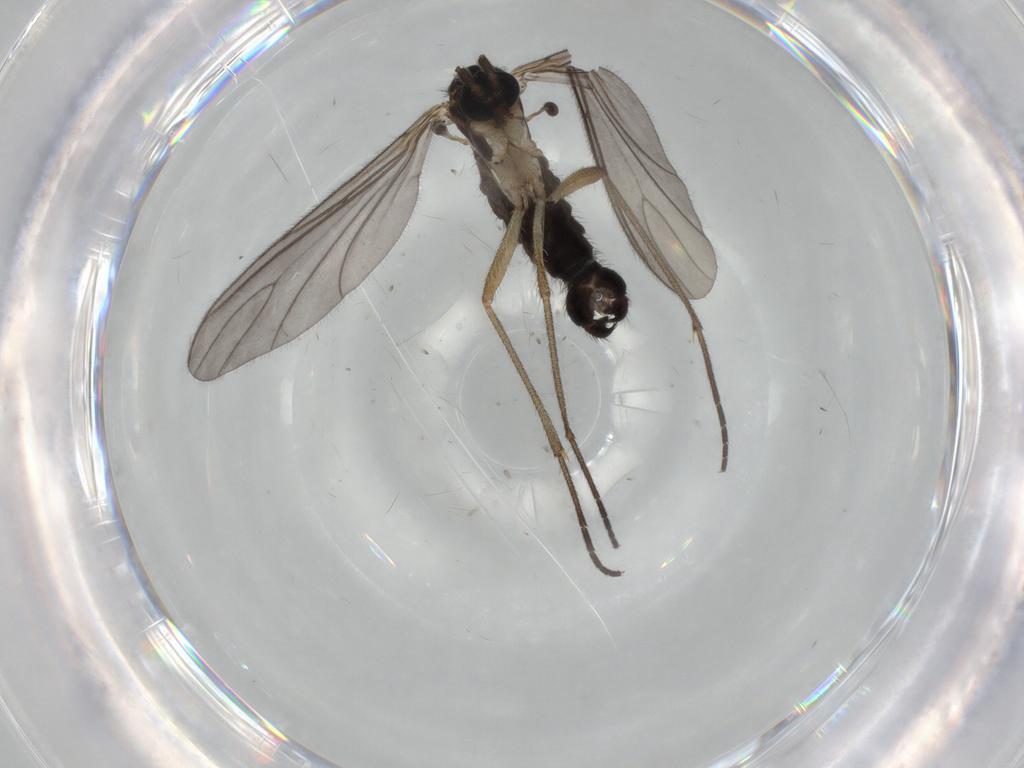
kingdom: Animalia
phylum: Arthropoda
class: Insecta
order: Diptera
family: Sciaridae
